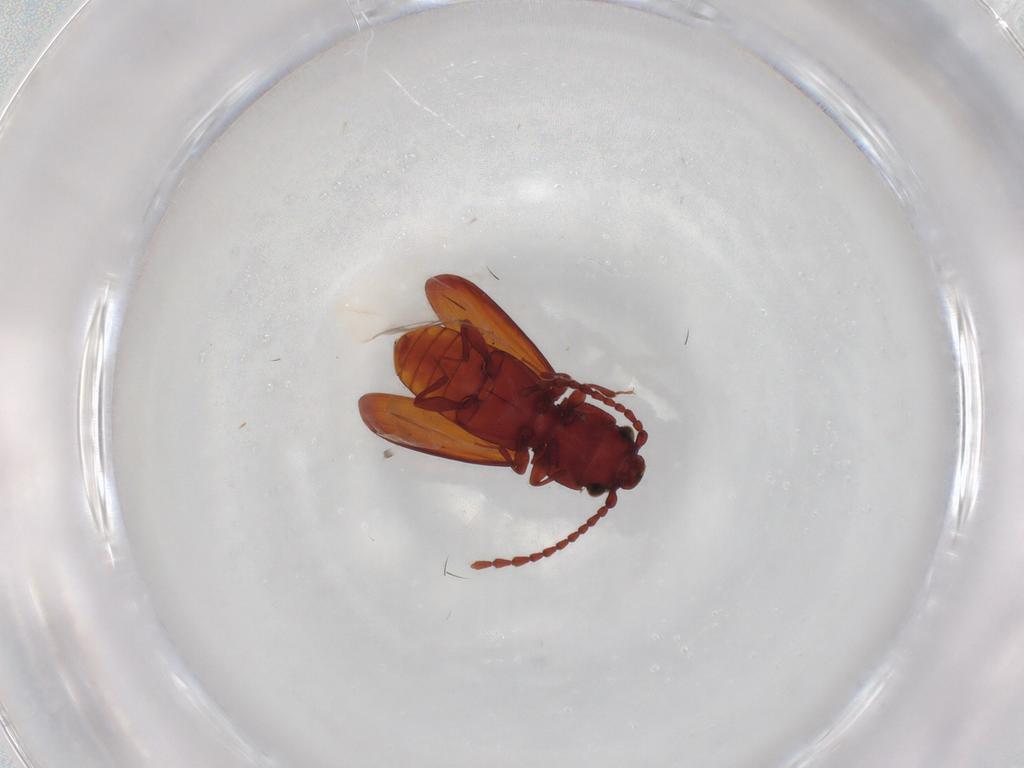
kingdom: Animalia
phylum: Arthropoda
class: Insecta
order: Coleoptera
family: Laemophloeidae
